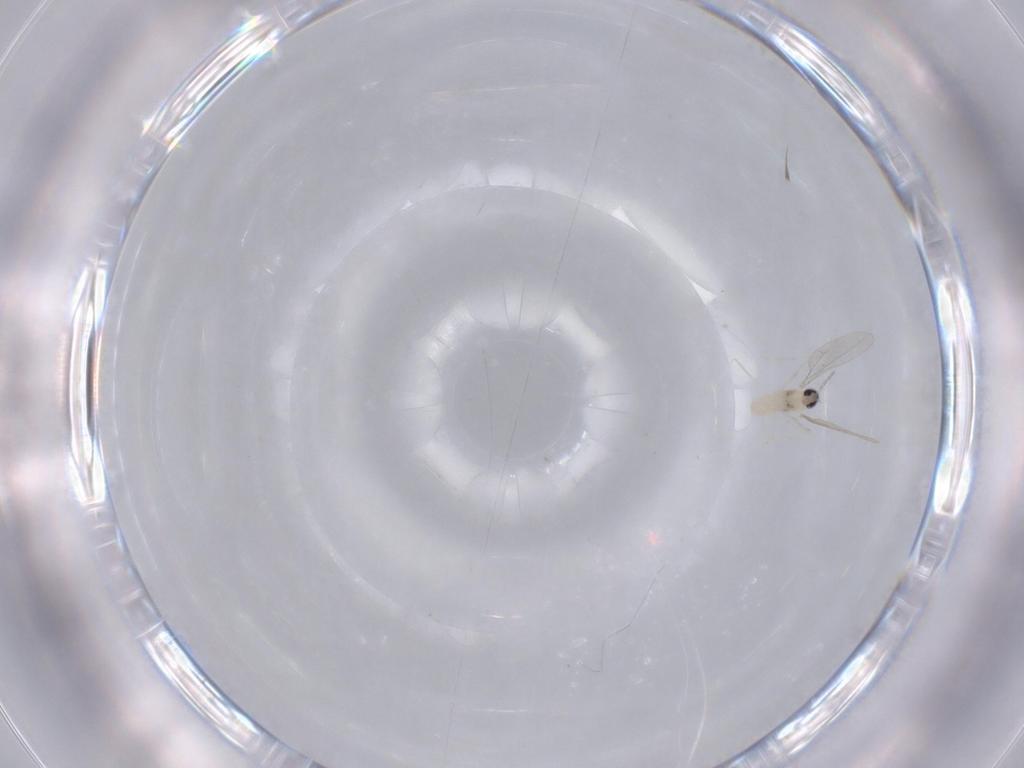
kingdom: Animalia
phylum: Arthropoda
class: Insecta
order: Diptera
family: Cecidomyiidae
